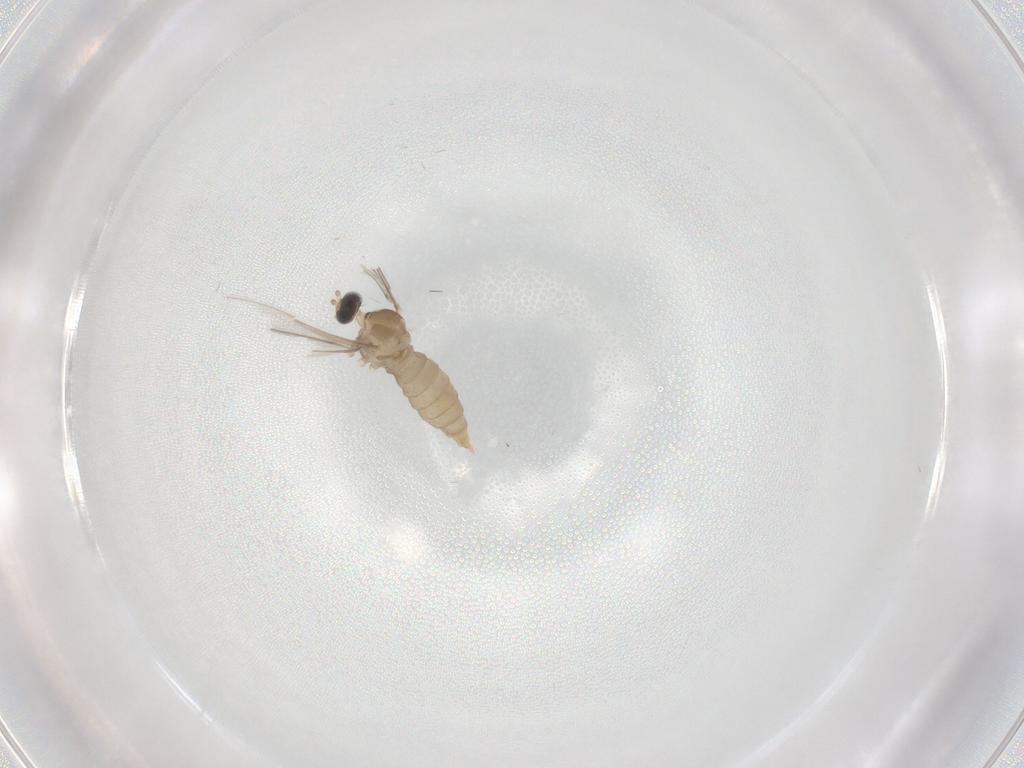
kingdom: Animalia
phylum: Arthropoda
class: Insecta
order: Diptera
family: Cecidomyiidae
